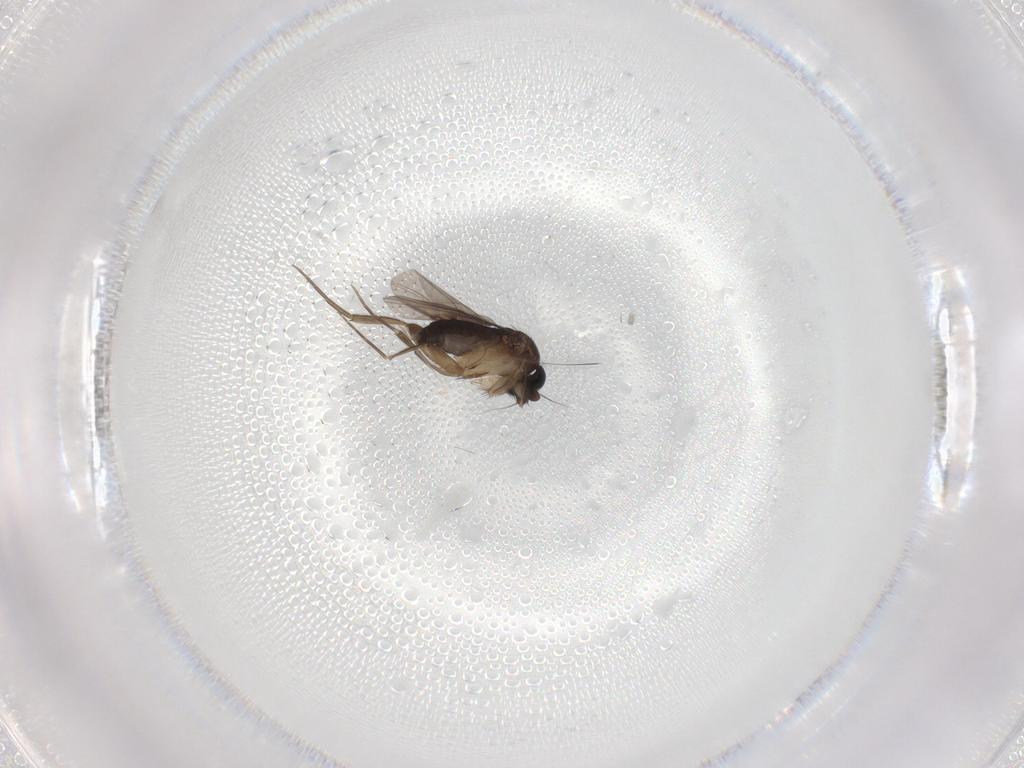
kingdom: Animalia
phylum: Arthropoda
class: Insecta
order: Diptera
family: Phoridae
